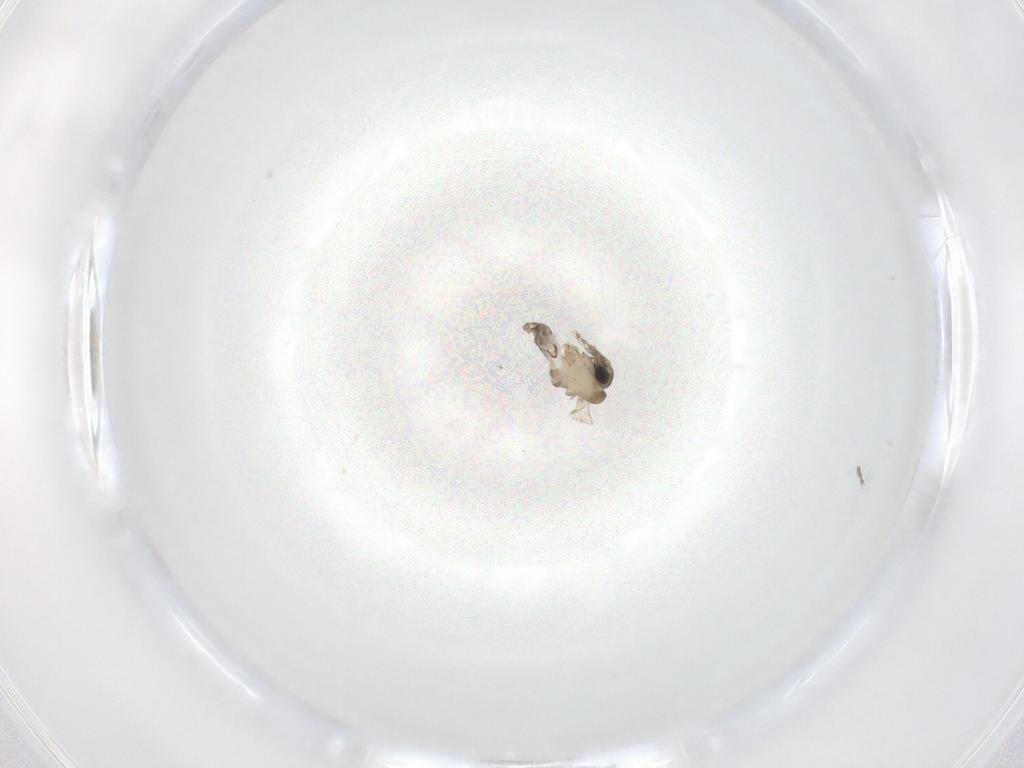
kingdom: Animalia
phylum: Arthropoda
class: Insecta
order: Diptera
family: Psychodidae
